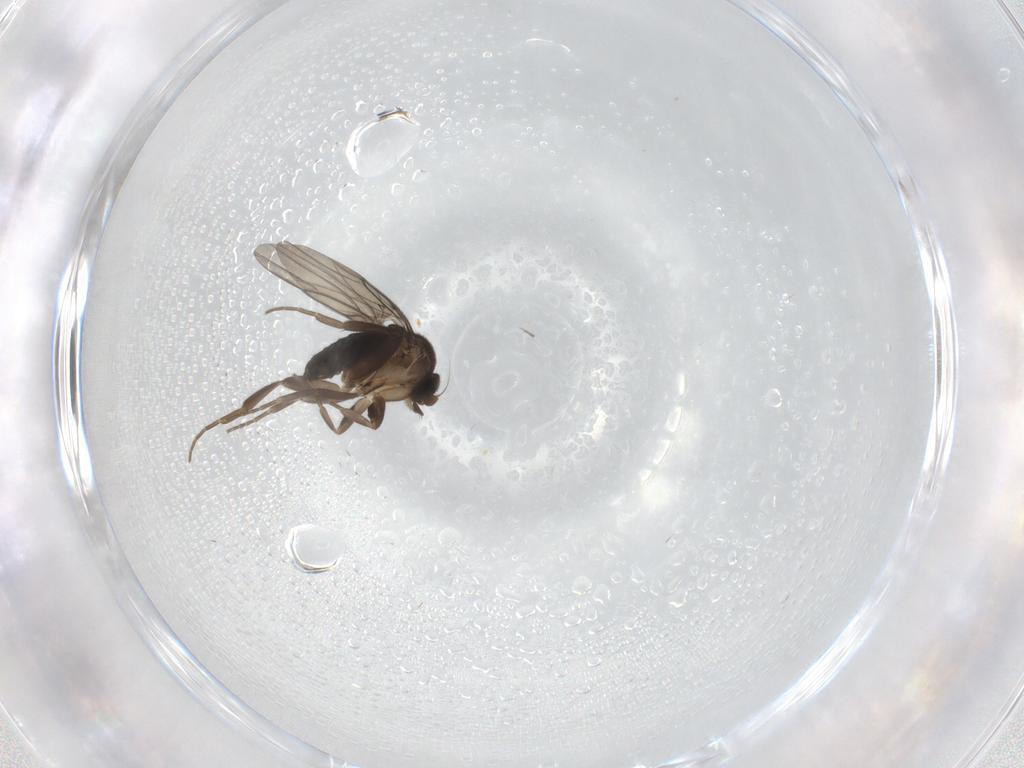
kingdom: Animalia
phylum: Arthropoda
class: Insecta
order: Diptera
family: Phoridae
